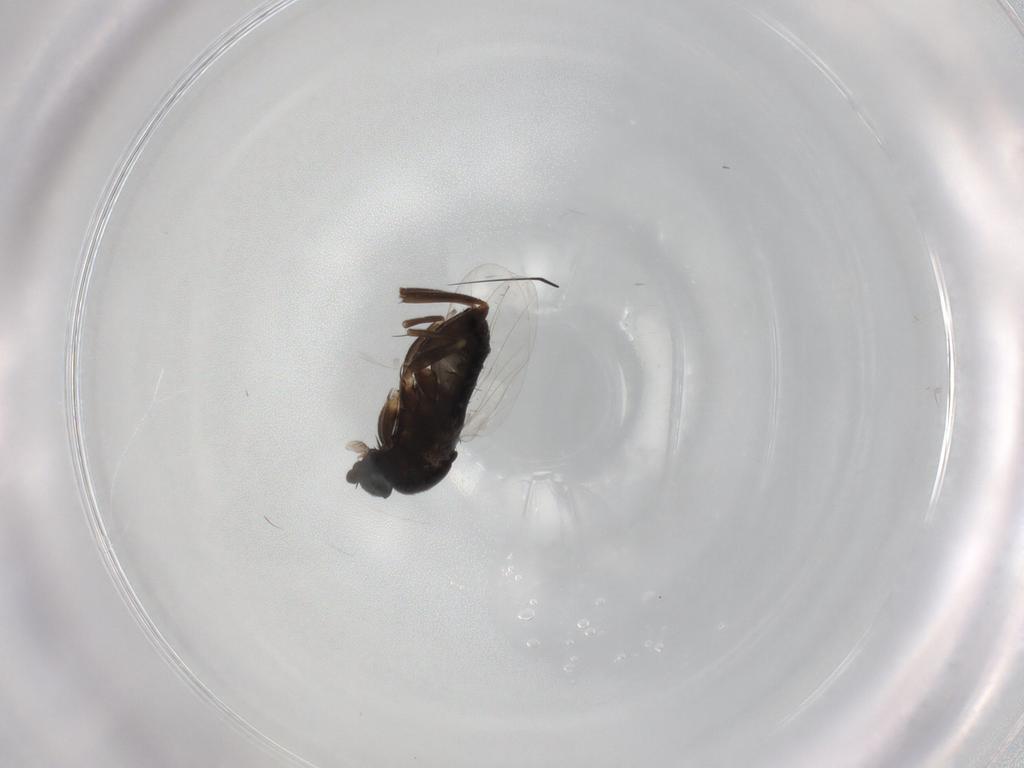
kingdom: Animalia
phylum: Arthropoda
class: Insecta
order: Diptera
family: Phoridae
